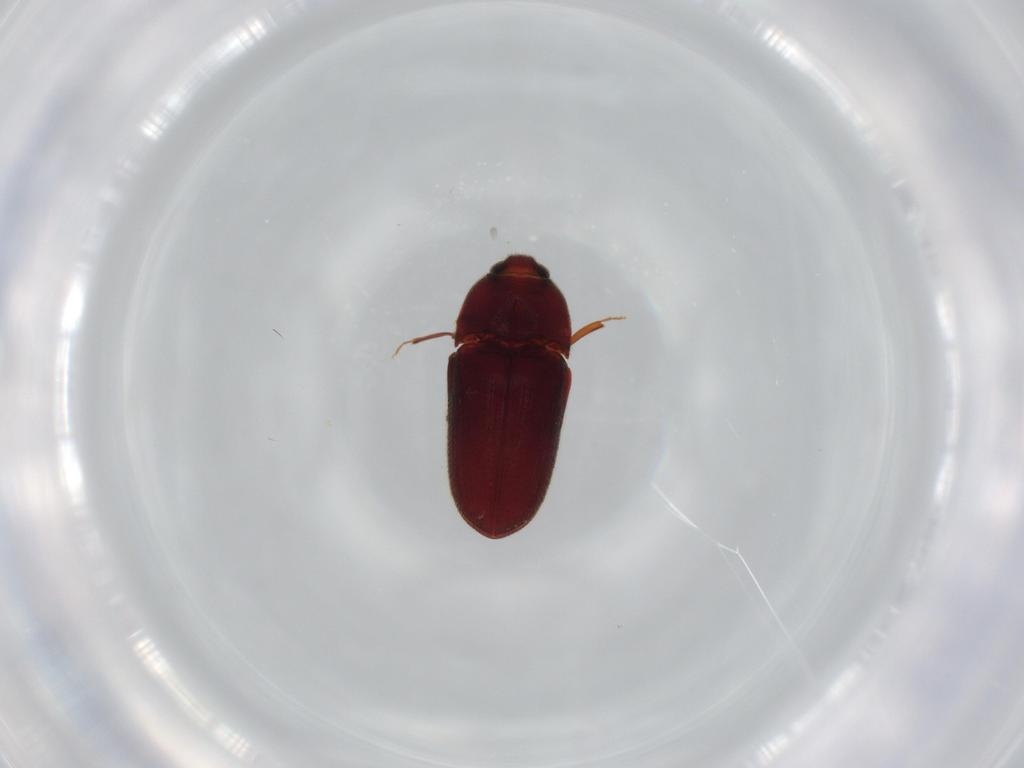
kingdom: Animalia
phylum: Arthropoda
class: Insecta
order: Coleoptera
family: Throscidae
